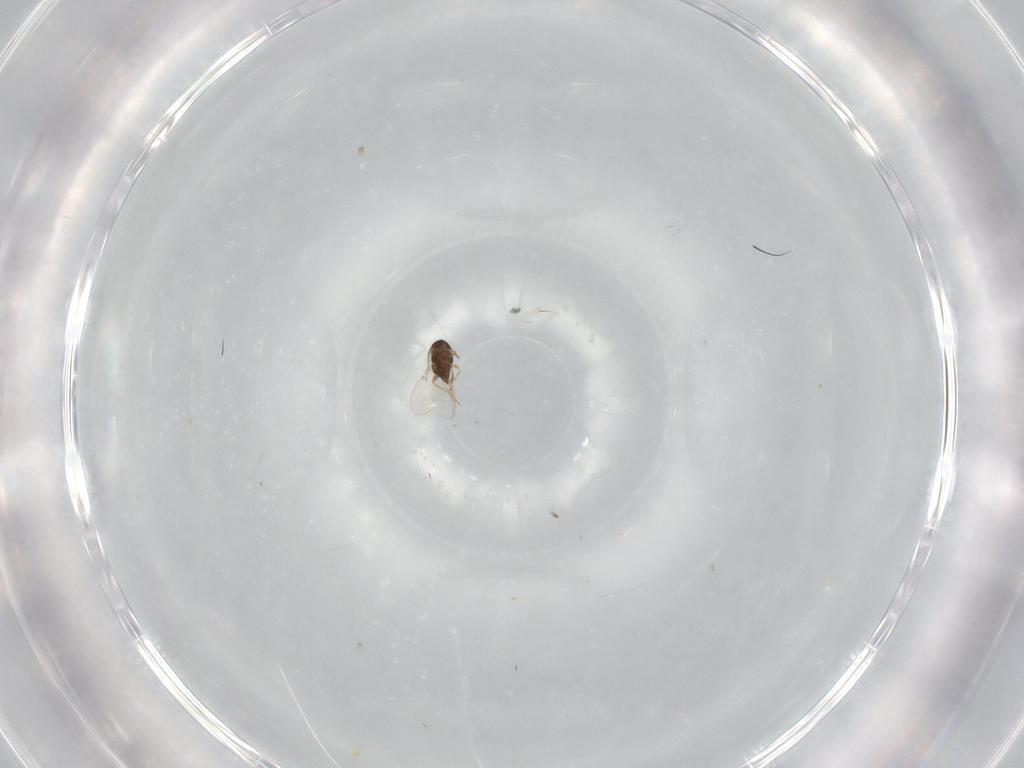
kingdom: Animalia
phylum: Arthropoda
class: Insecta
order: Hymenoptera
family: Encyrtidae
